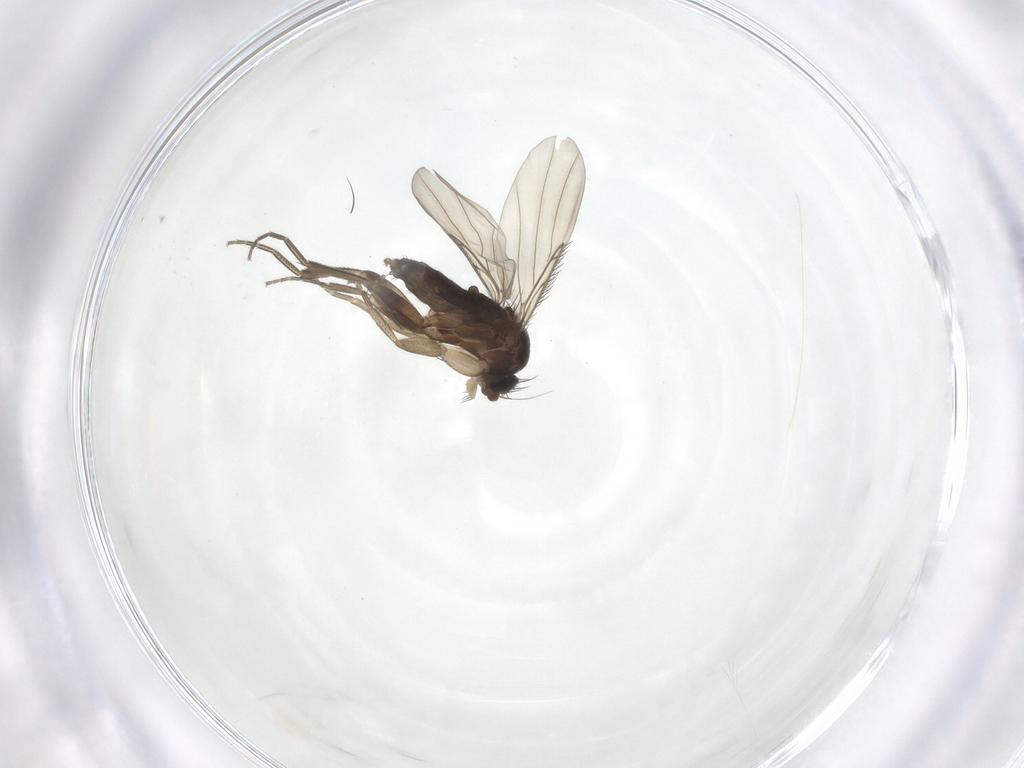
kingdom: Animalia
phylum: Arthropoda
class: Insecta
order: Diptera
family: Phoridae
